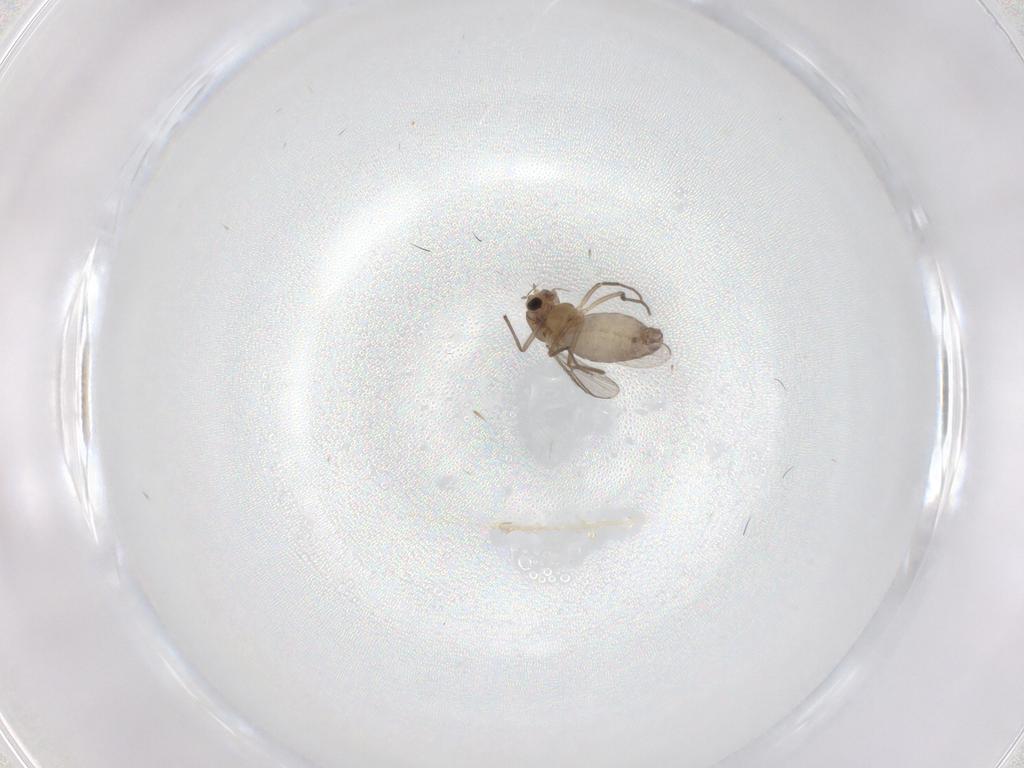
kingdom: Animalia
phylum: Arthropoda
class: Insecta
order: Diptera
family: Chironomidae
